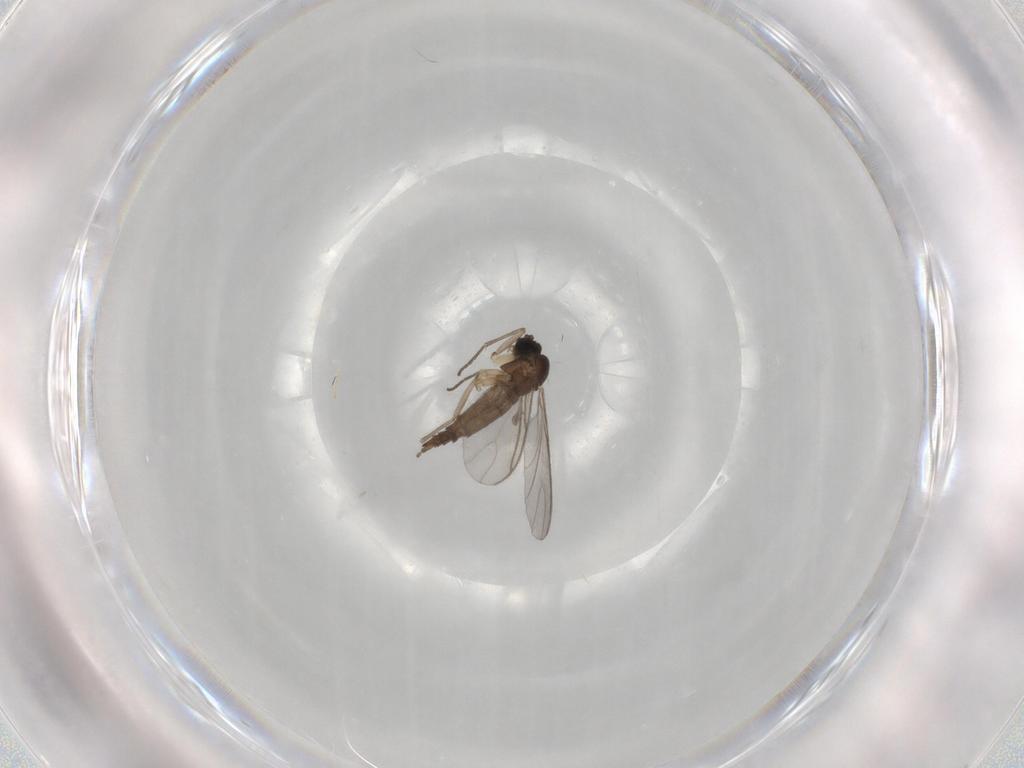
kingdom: Animalia
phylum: Arthropoda
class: Insecta
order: Diptera
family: Sciaridae
